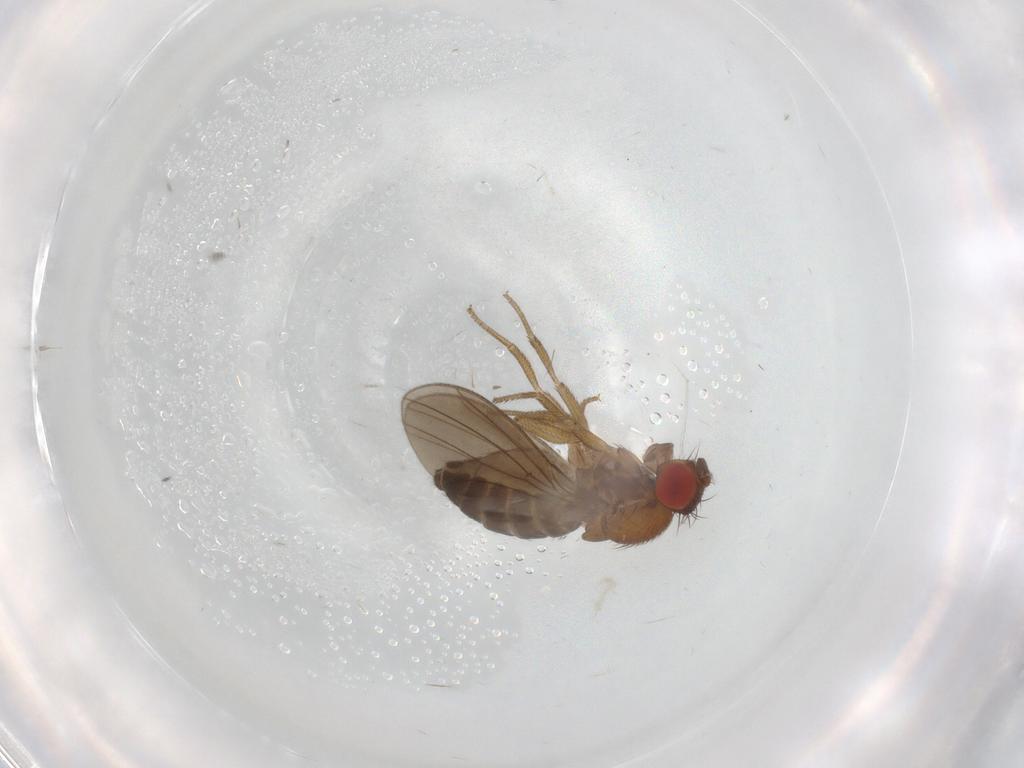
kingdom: Animalia
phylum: Arthropoda
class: Insecta
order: Diptera
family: Drosophilidae
